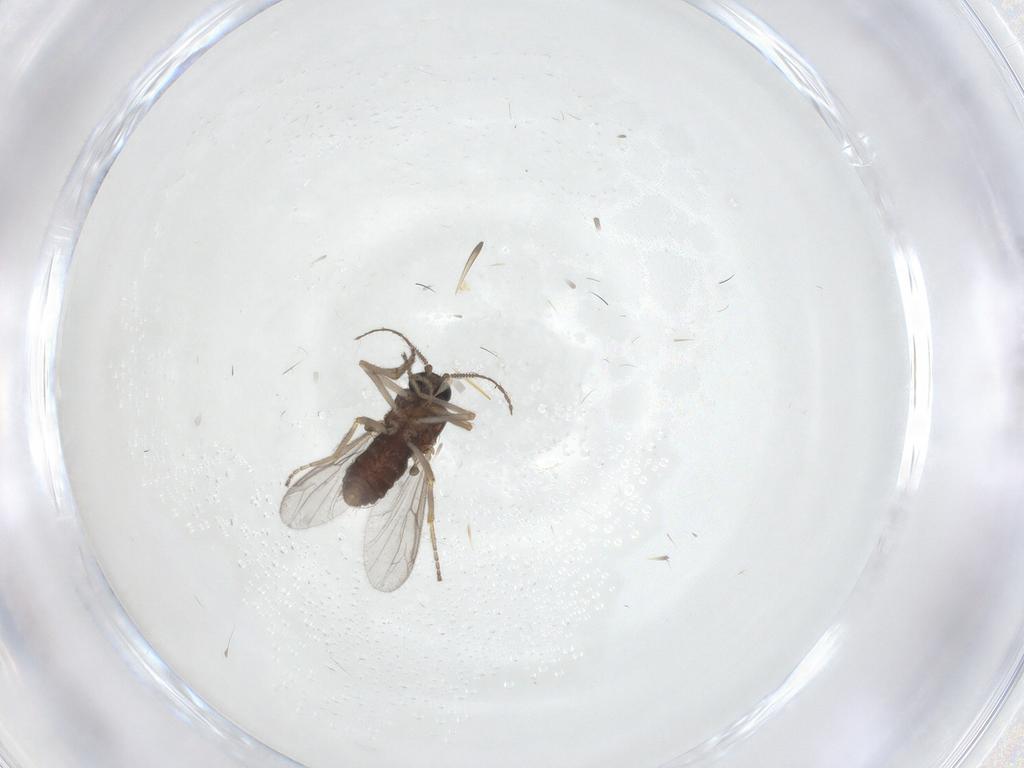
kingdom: Animalia
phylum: Arthropoda
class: Insecta
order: Diptera
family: Ceratopogonidae
